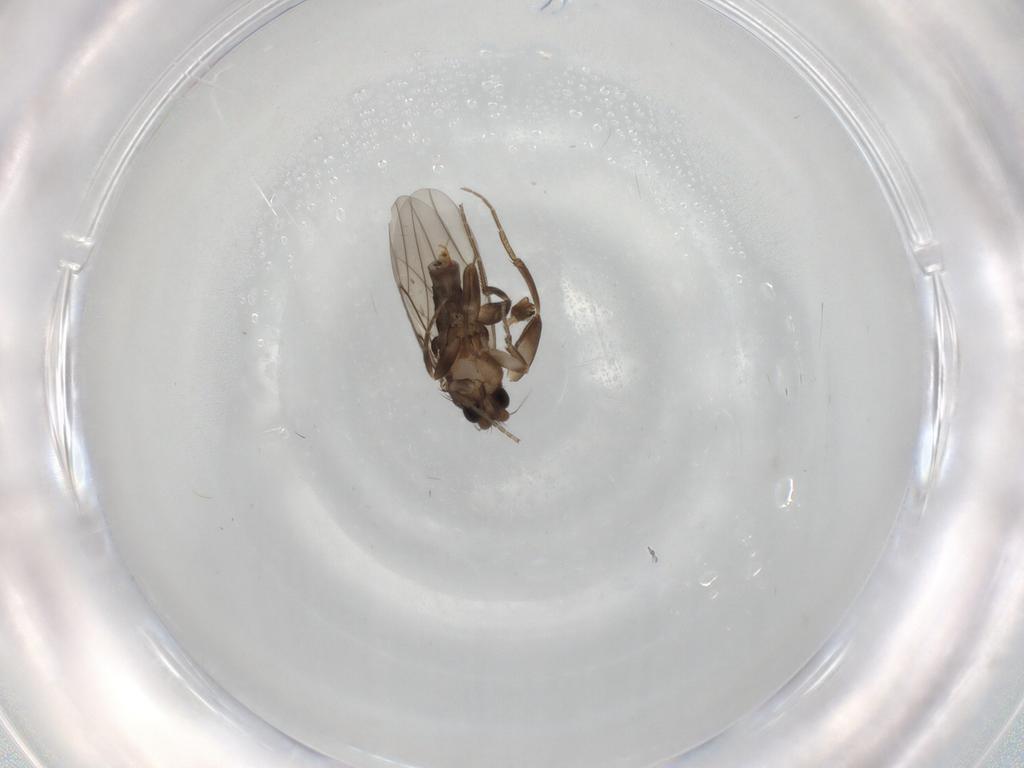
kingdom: Animalia
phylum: Arthropoda
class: Insecta
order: Diptera
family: Phoridae
